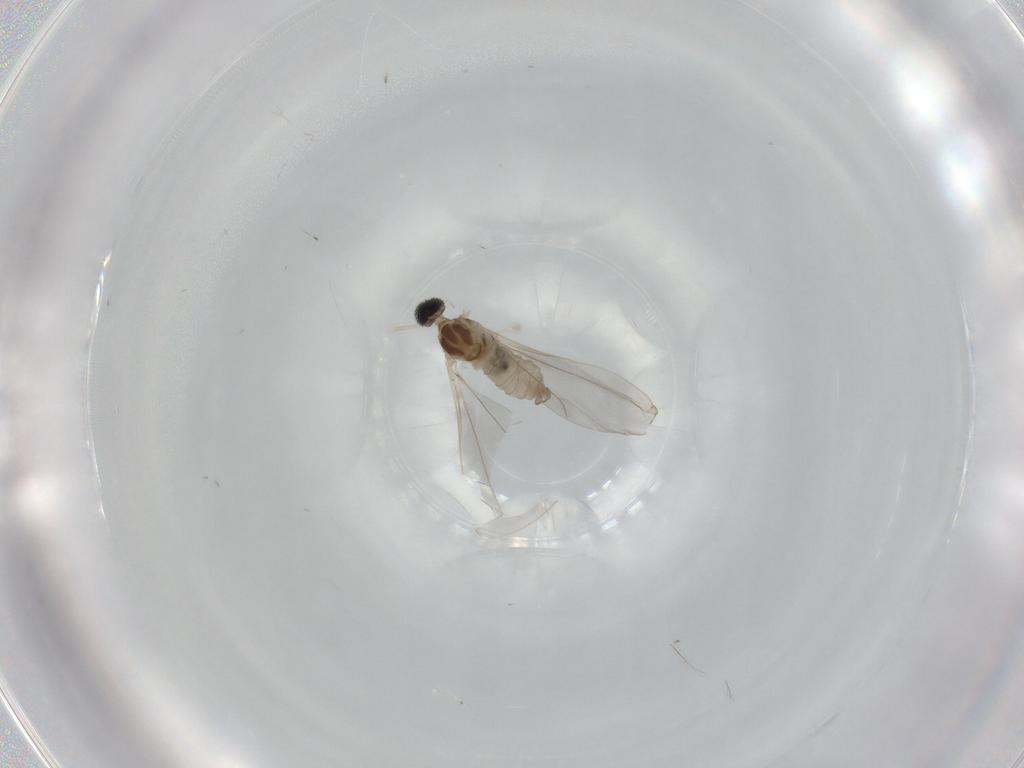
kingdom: Animalia
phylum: Arthropoda
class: Insecta
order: Diptera
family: Cecidomyiidae
